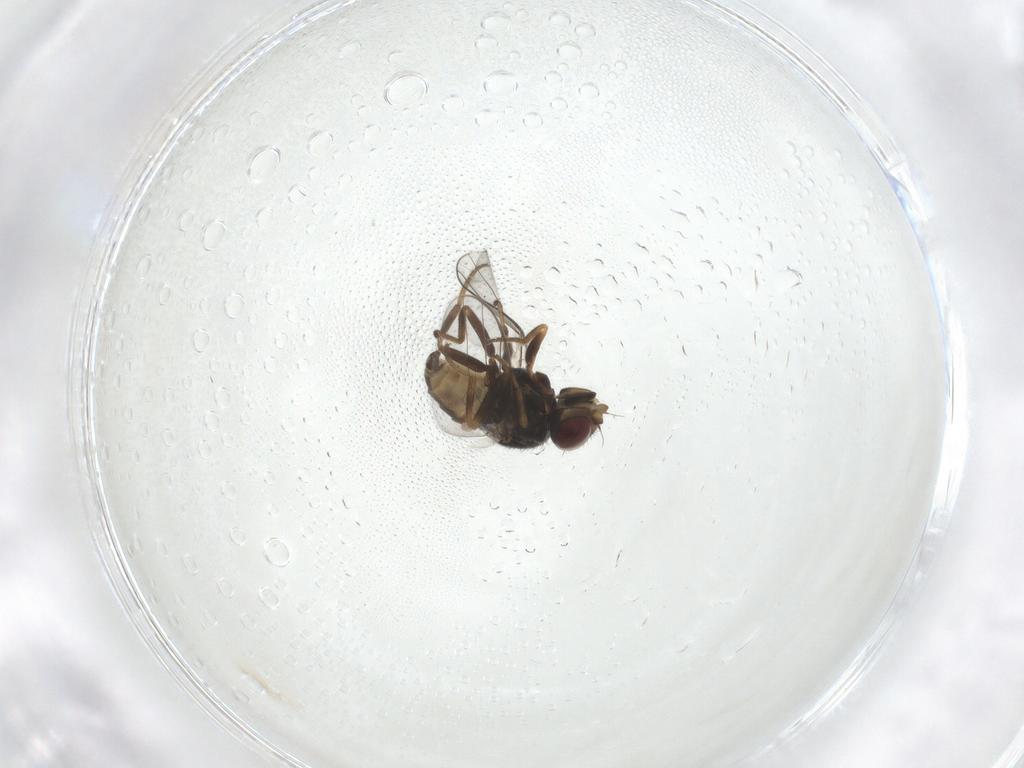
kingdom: Animalia
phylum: Arthropoda
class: Insecta
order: Diptera
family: Chloropidae
